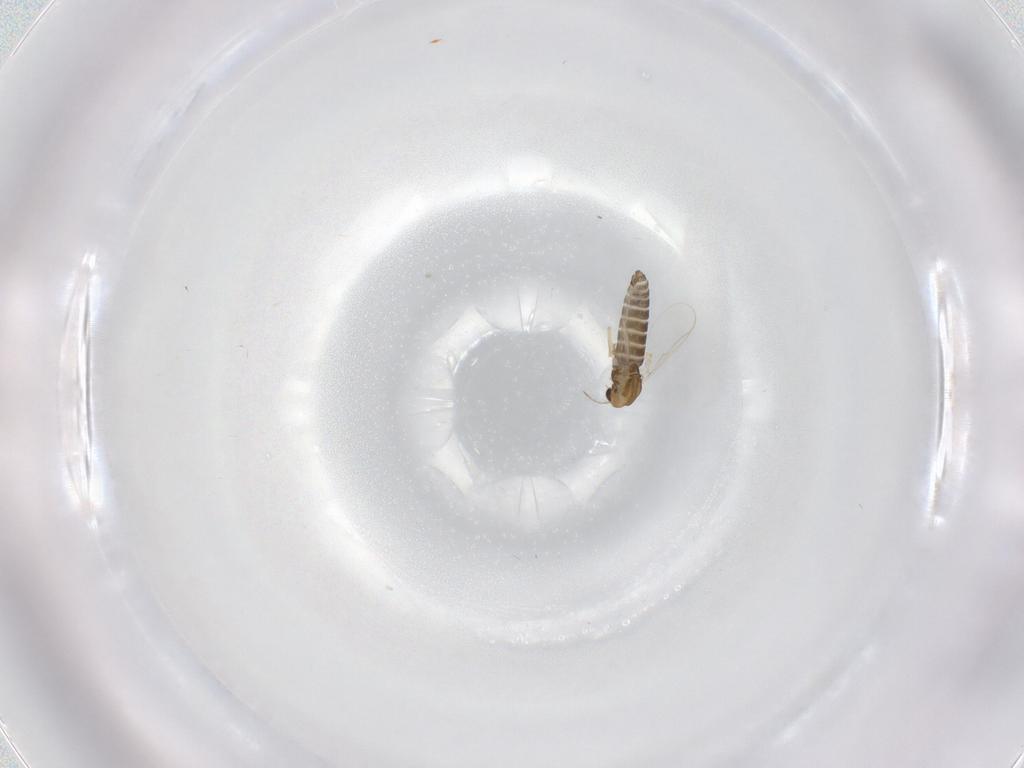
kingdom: Animalia
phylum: Arthropoda
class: Insecta
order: Diptera
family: Chironomidae
